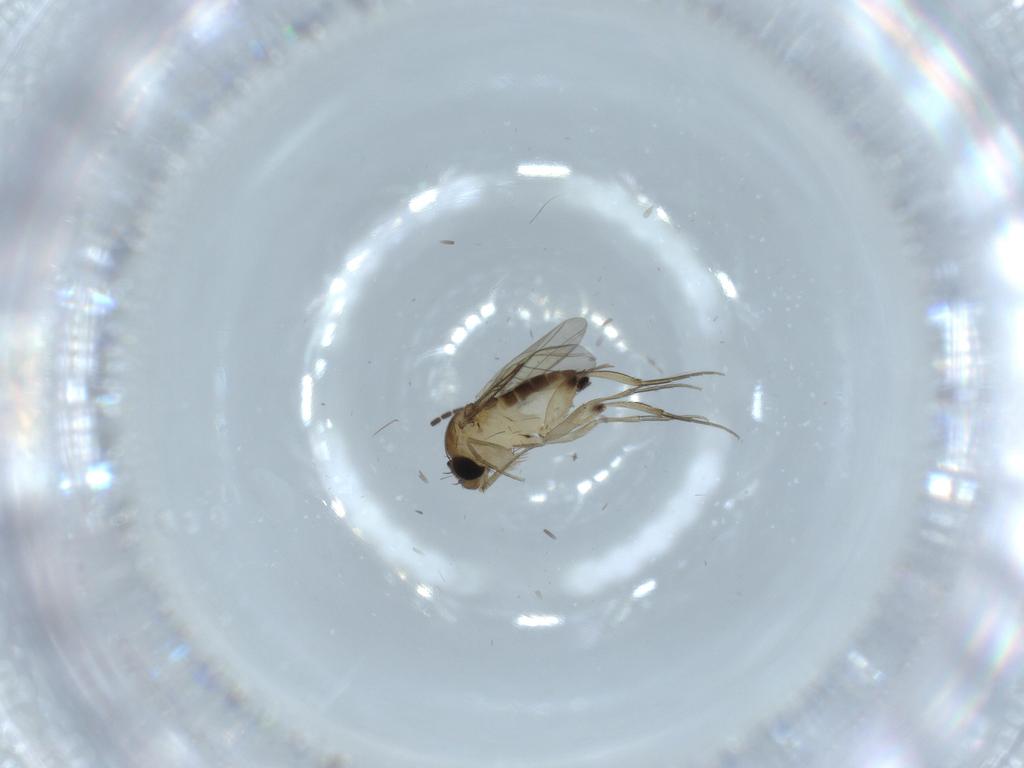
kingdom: Animalia
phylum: Arthropoda
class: Insecta
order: Diptera
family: Phoridae
